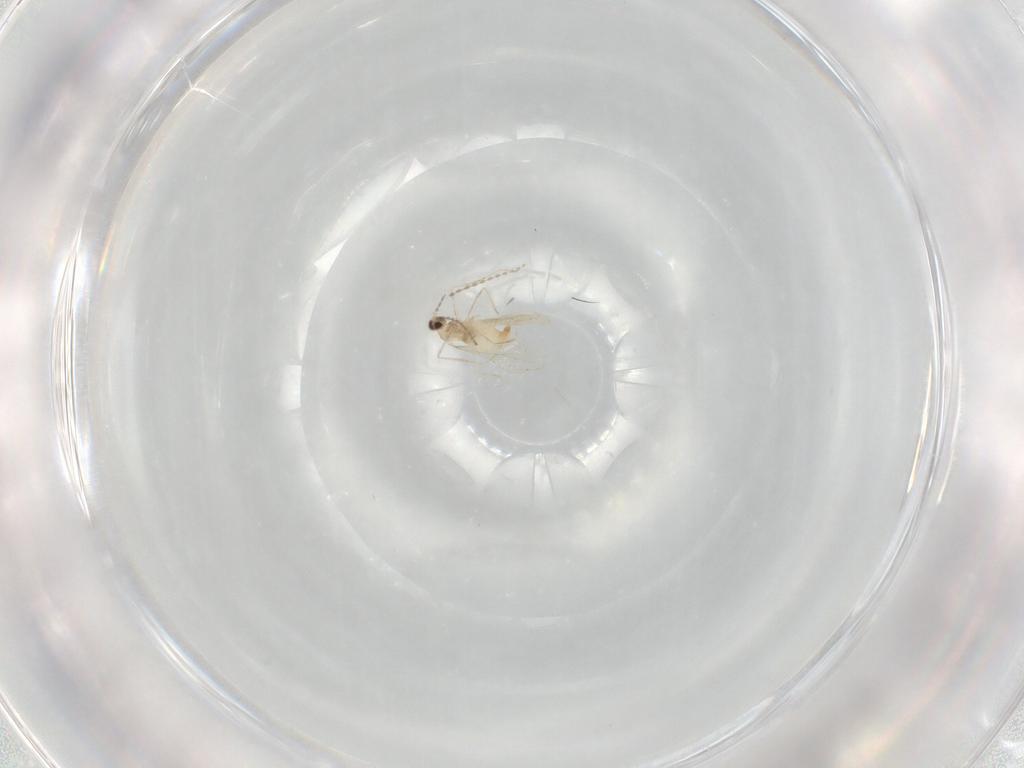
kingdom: Animalia
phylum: Arthropoda
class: Insecta
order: Diptera
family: Cecidomyiidae
